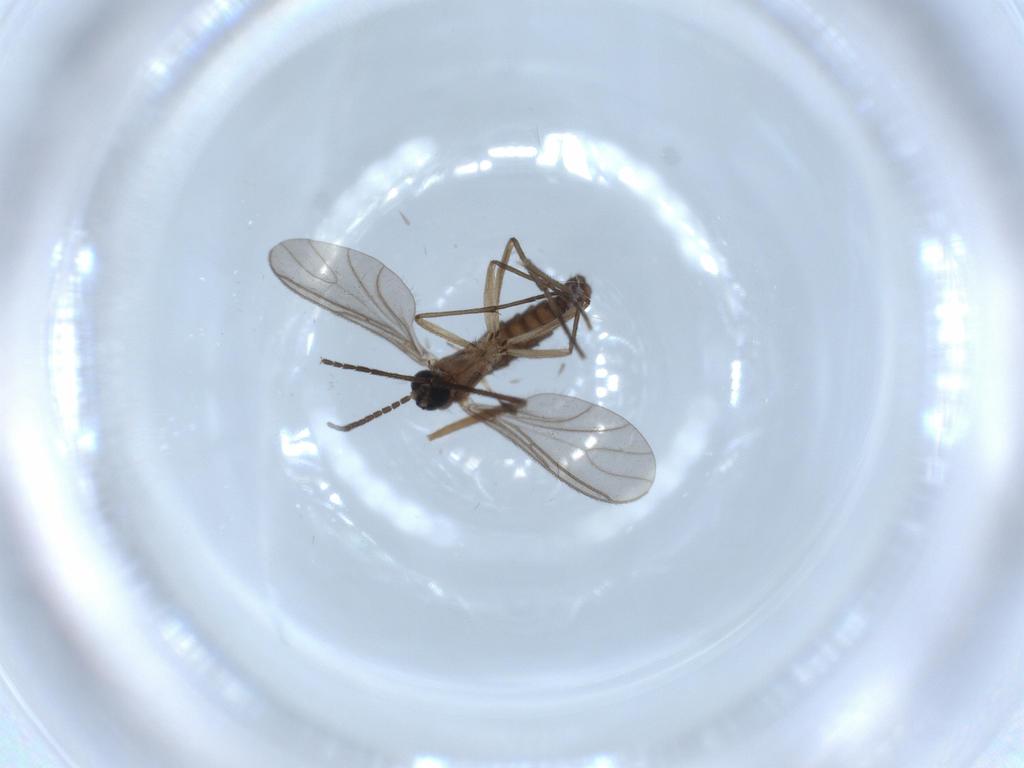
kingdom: Animalia
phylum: Arthropoda
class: Insecta
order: Diptera
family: Sciaridae
